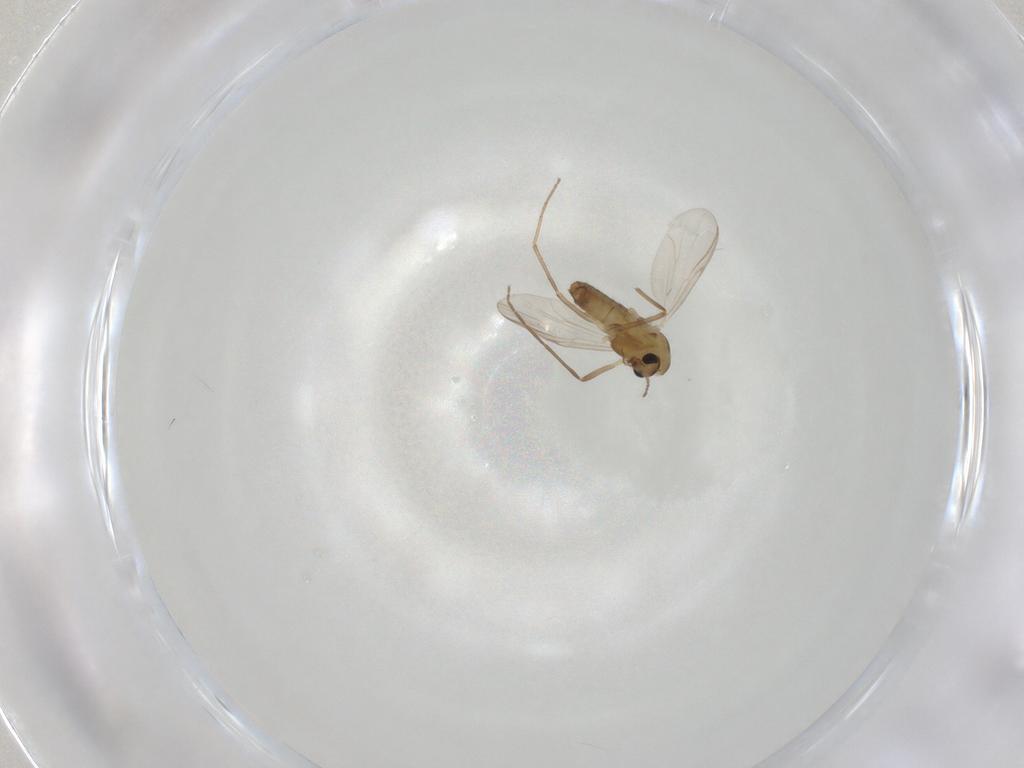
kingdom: Animalia
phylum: Arthropoda
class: Insecta
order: Diptera
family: Chironomidae
